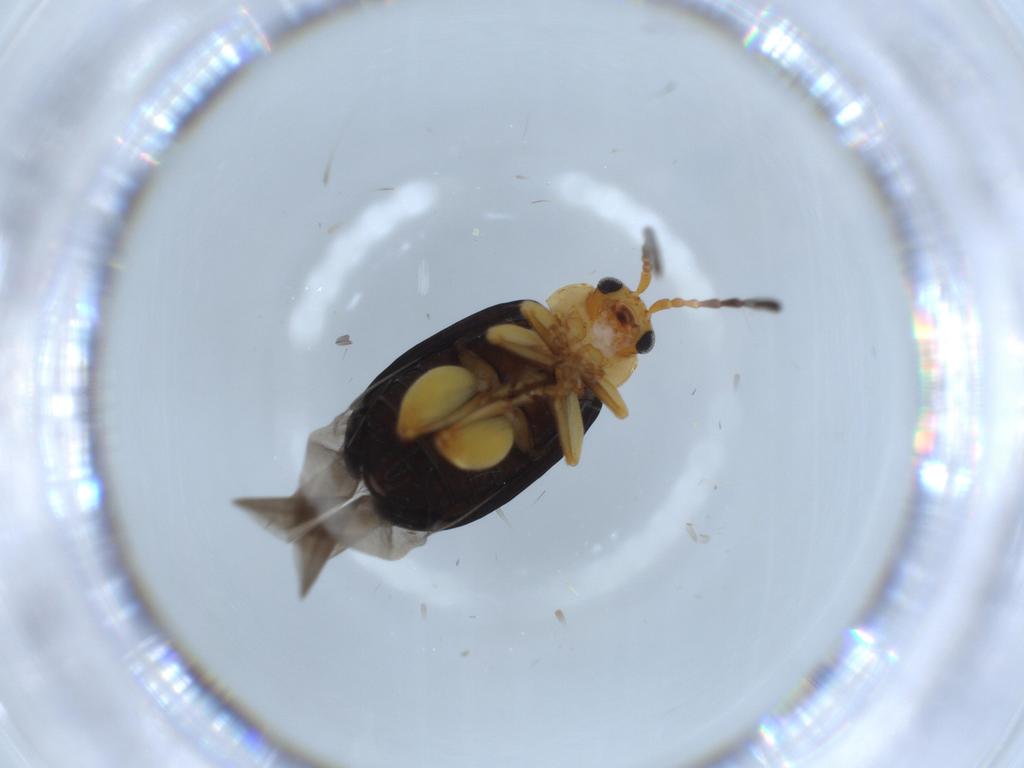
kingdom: Animalia
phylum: Arthropoda
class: Insecta
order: Coleoptera
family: Chrysomelidae
